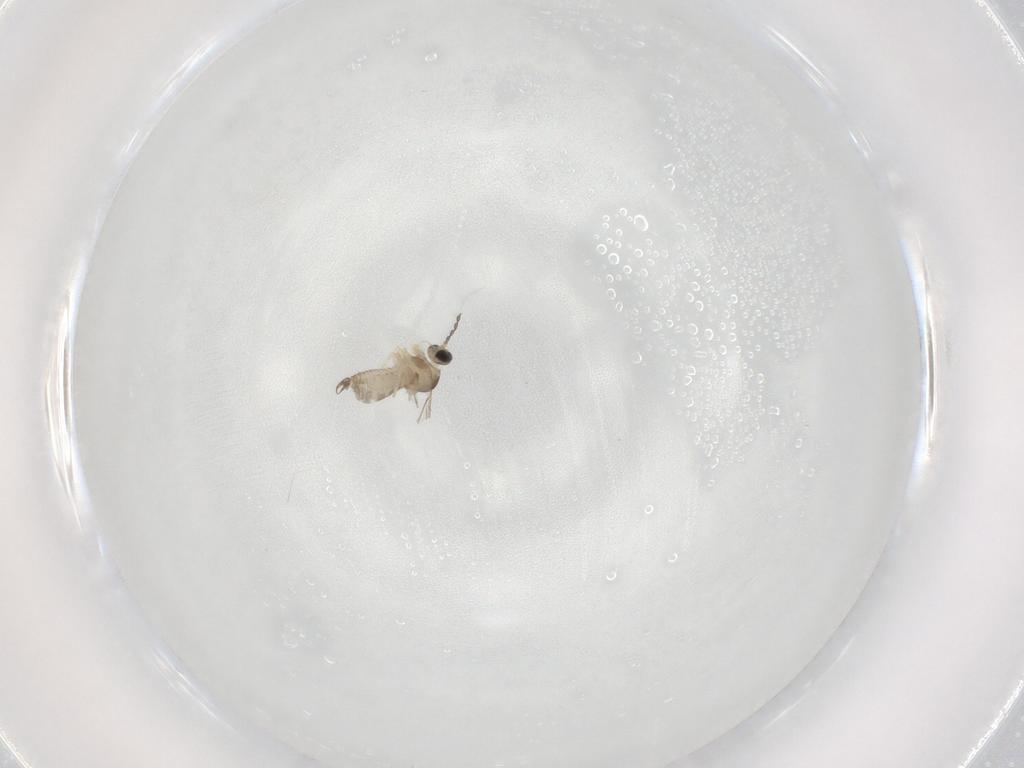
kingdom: Animalia
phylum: Arthropoda
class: Insecta
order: Diptera
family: Cecidomyiidae
